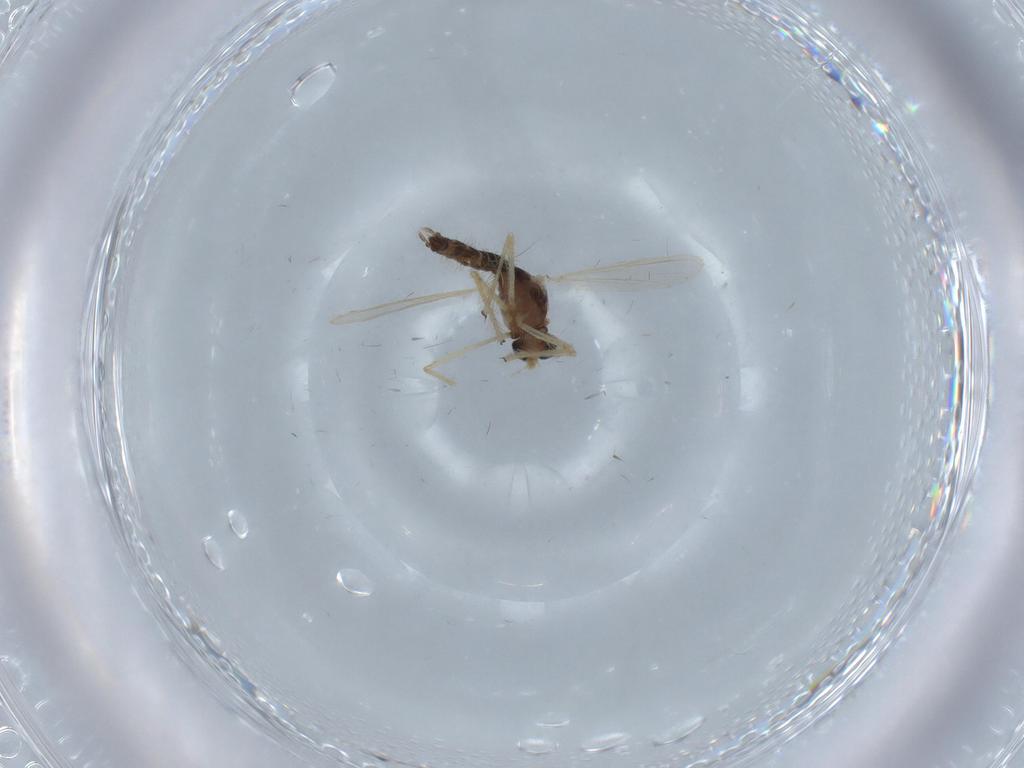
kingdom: Animalia
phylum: Arthropoda
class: Insecta
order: Diptera
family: Chironomidae
